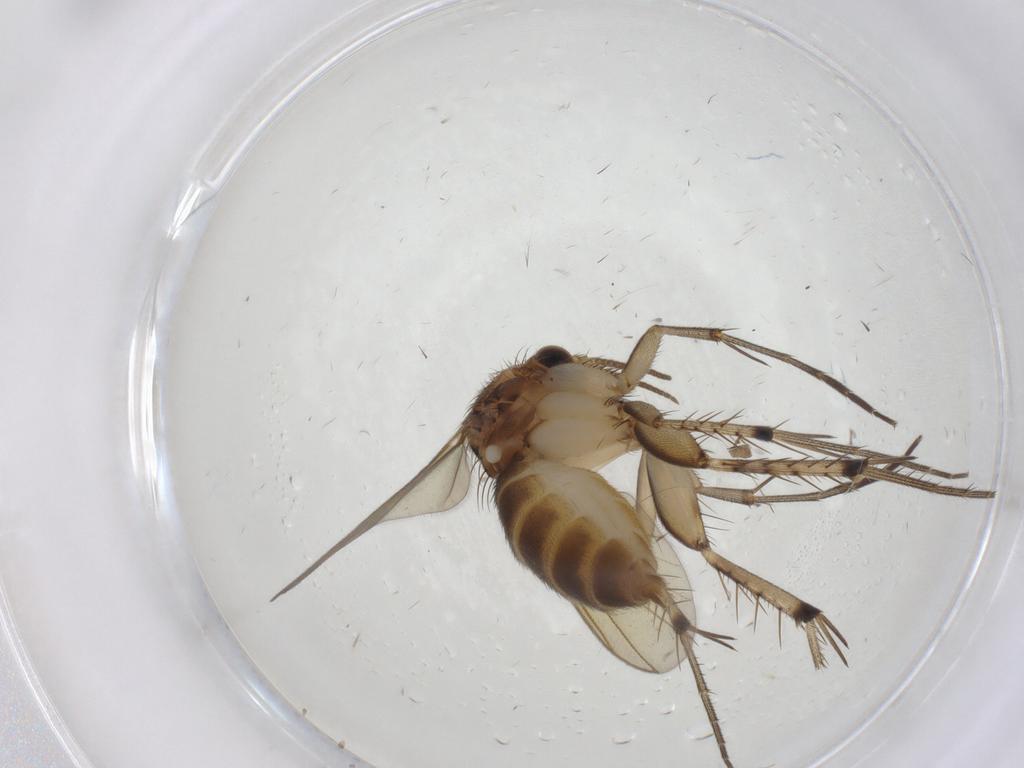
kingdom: Animalia
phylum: Arthropoda
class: Insecta
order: Diptera
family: Mycetophilidae
